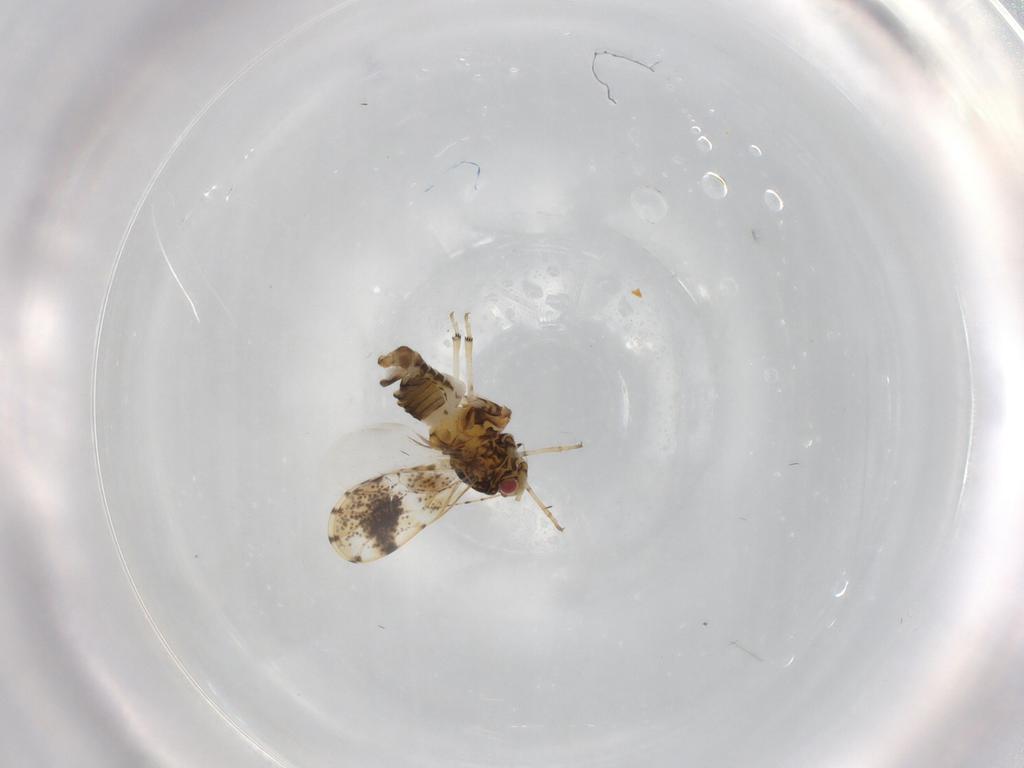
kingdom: Animalia
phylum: Arthropoda
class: Insecta
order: Hemiptera
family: Psylloidea_incertae_sedis
